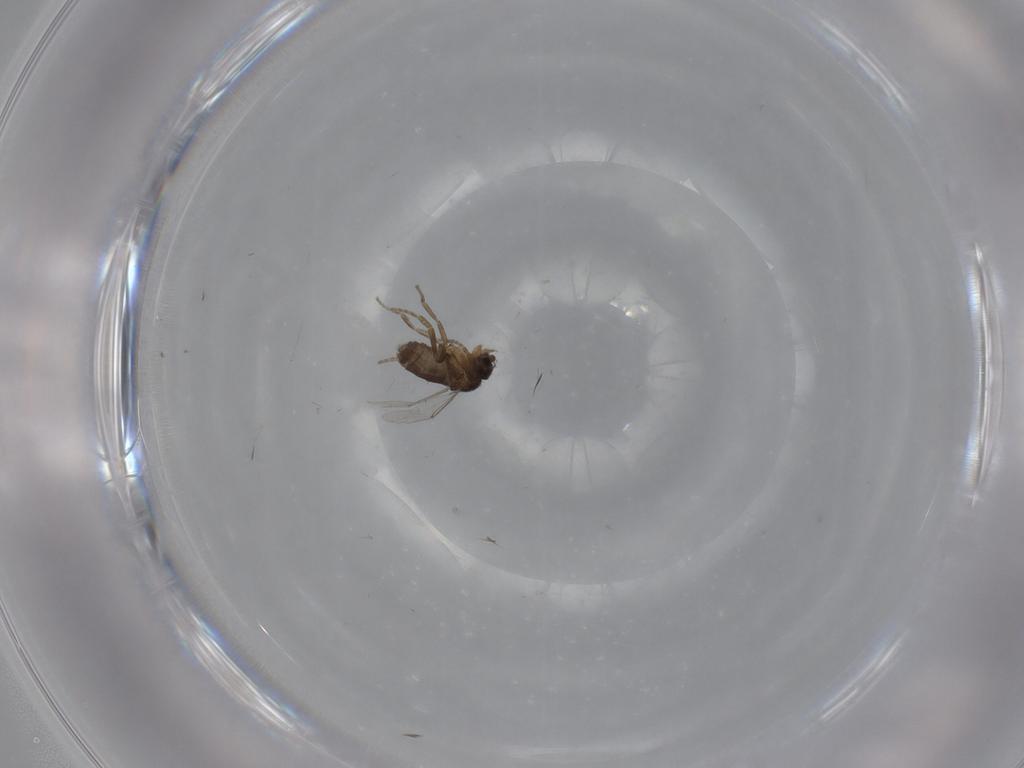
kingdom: Animalia
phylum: Arthropoda
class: Insecta
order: Diptera
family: Phoridae
